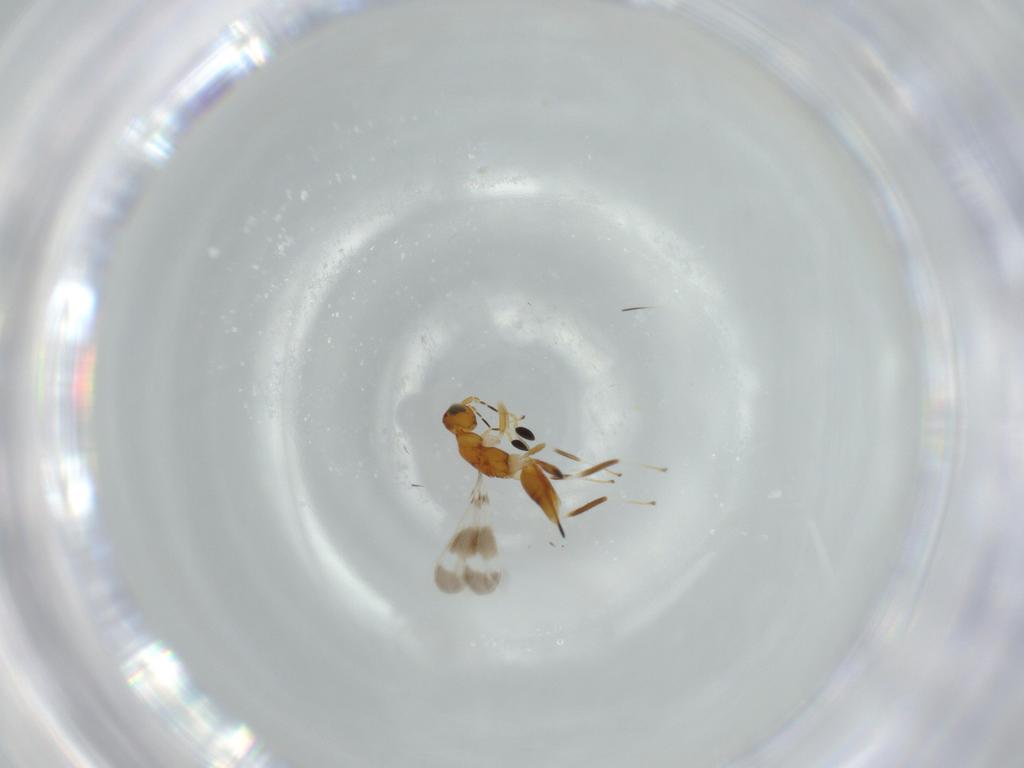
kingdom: Animalia
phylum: Arthropoda
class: Insecta
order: Hymenoptera
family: Mymaridae
